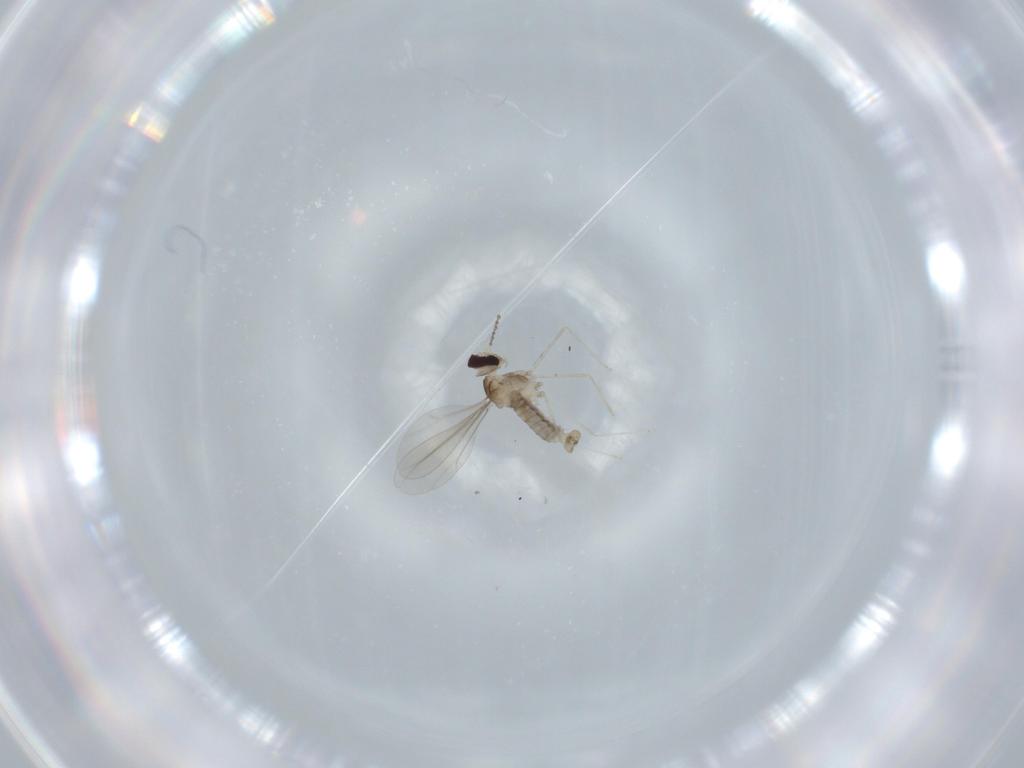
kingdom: Animalia
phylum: Arthropoda
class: Insecta
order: Diptera
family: Cecidomyiidae
